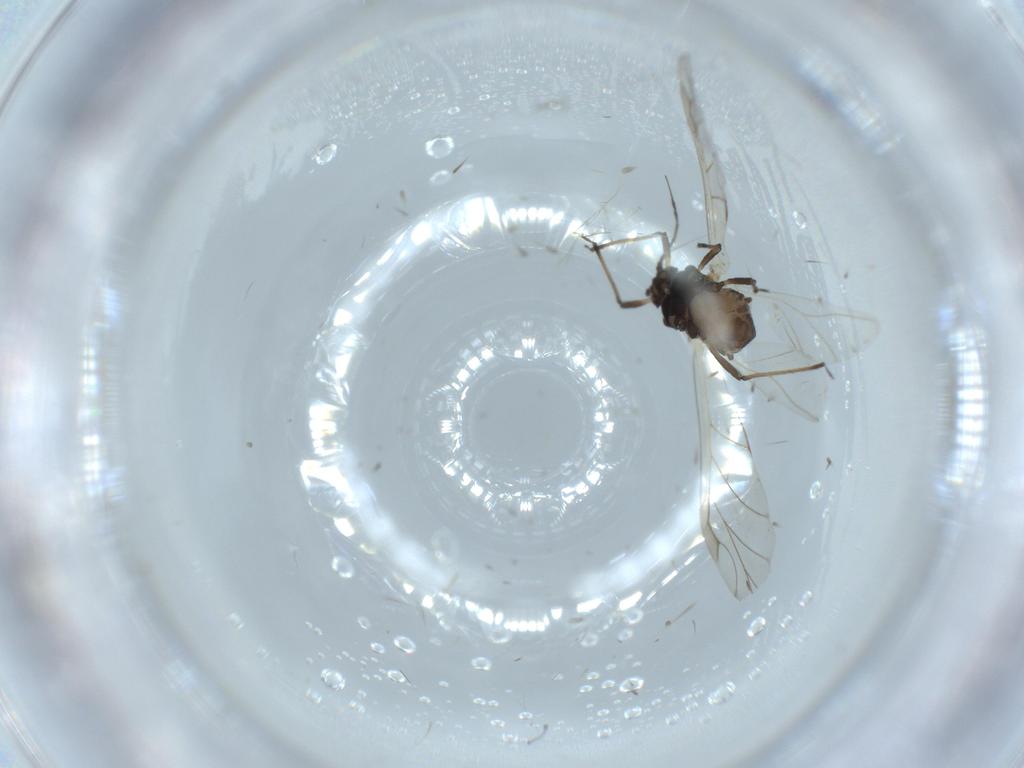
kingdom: Animalia
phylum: Arthropoda
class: Insecta
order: Hemiptera
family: Aphididae
